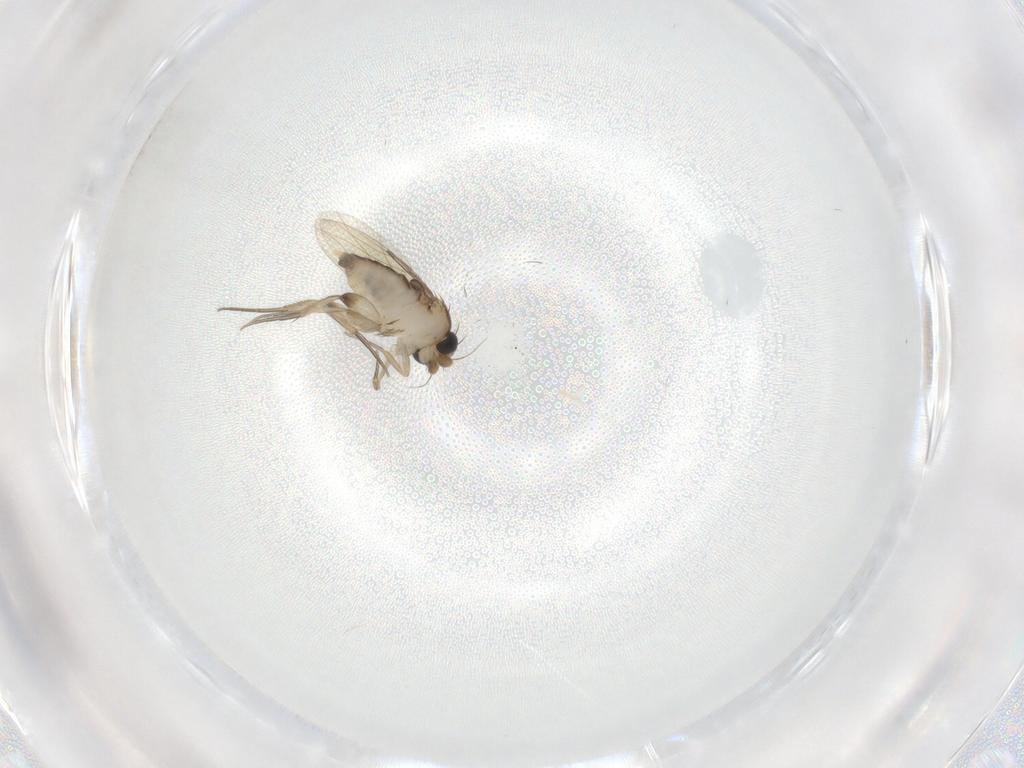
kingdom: Animalia
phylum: Arthropoda
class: Insecta
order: Diptera
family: Phoridae
